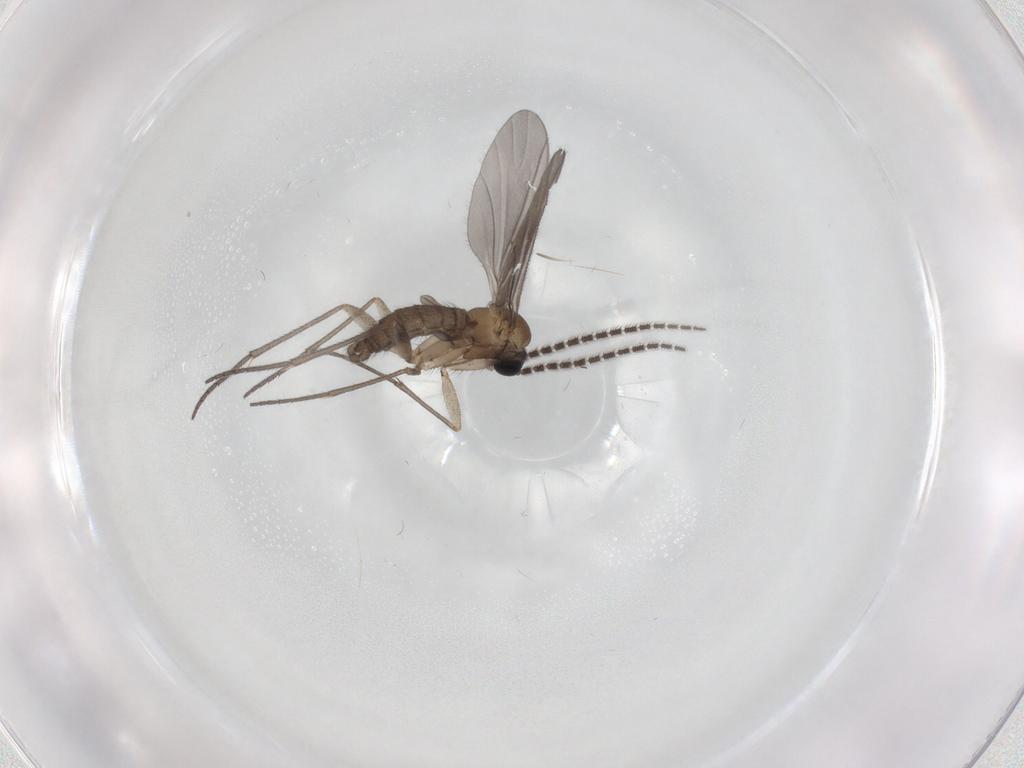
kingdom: Animalia
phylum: Arthropoda
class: Insecta
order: Diptera
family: Sciaridae
